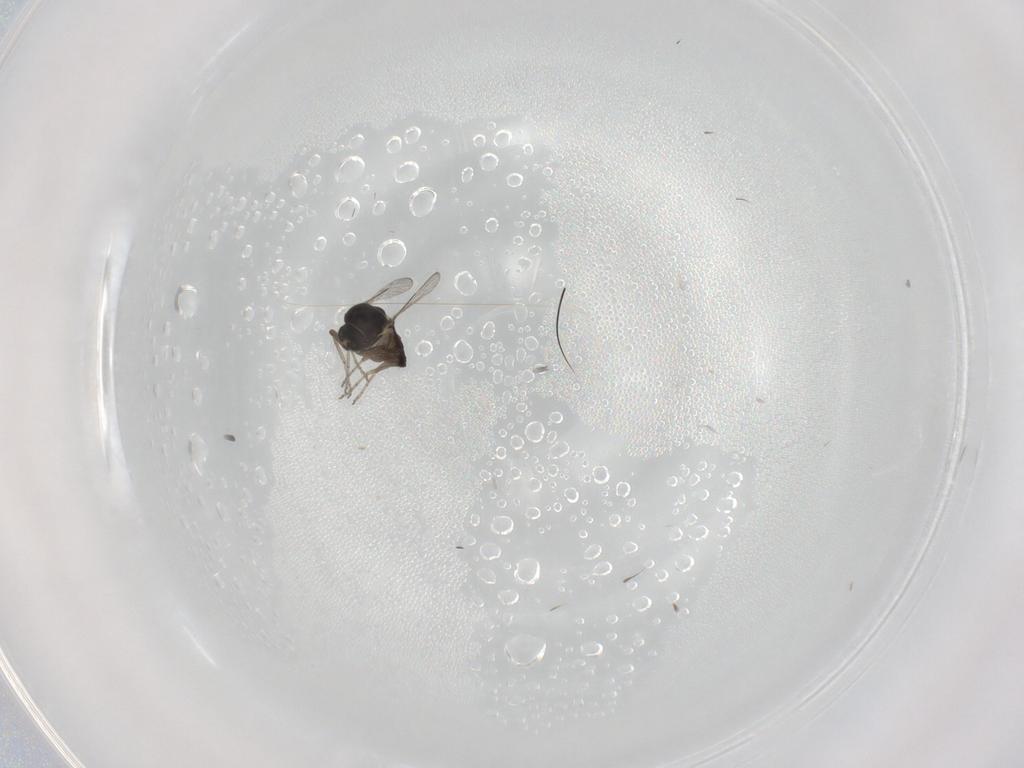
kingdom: Animalia
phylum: Arthropoda
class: Insecta
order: Diptera
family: Ceratopogonidae
